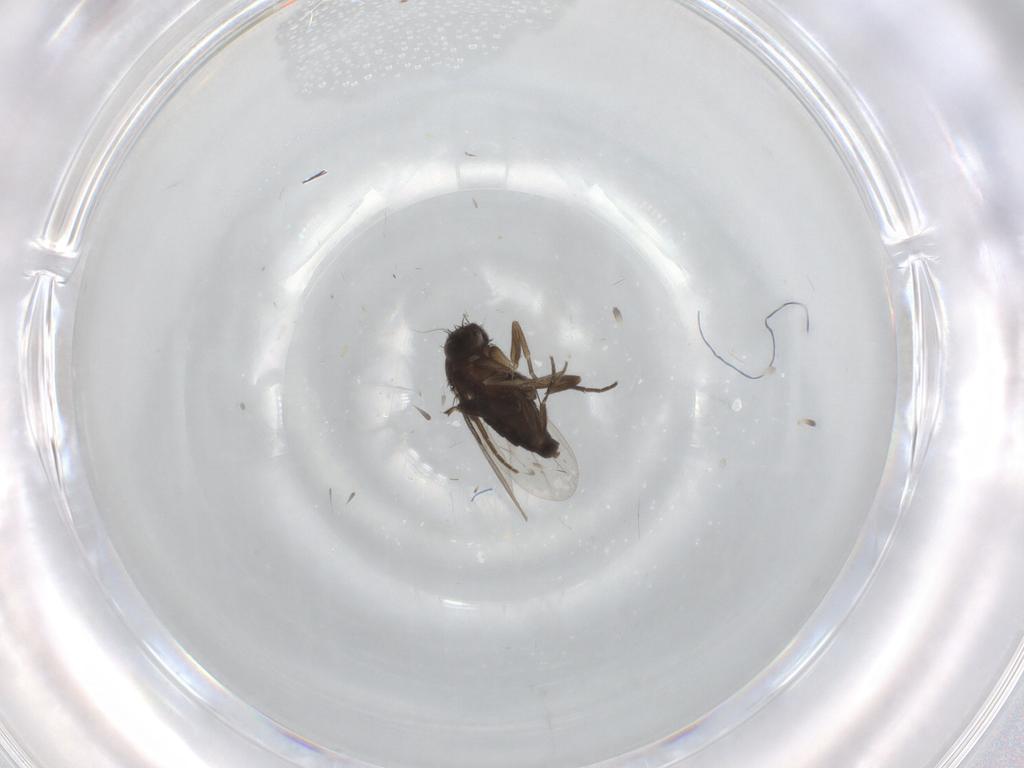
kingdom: Animalia
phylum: Arthropoda
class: Insecta
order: Diptera
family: Phoridae
